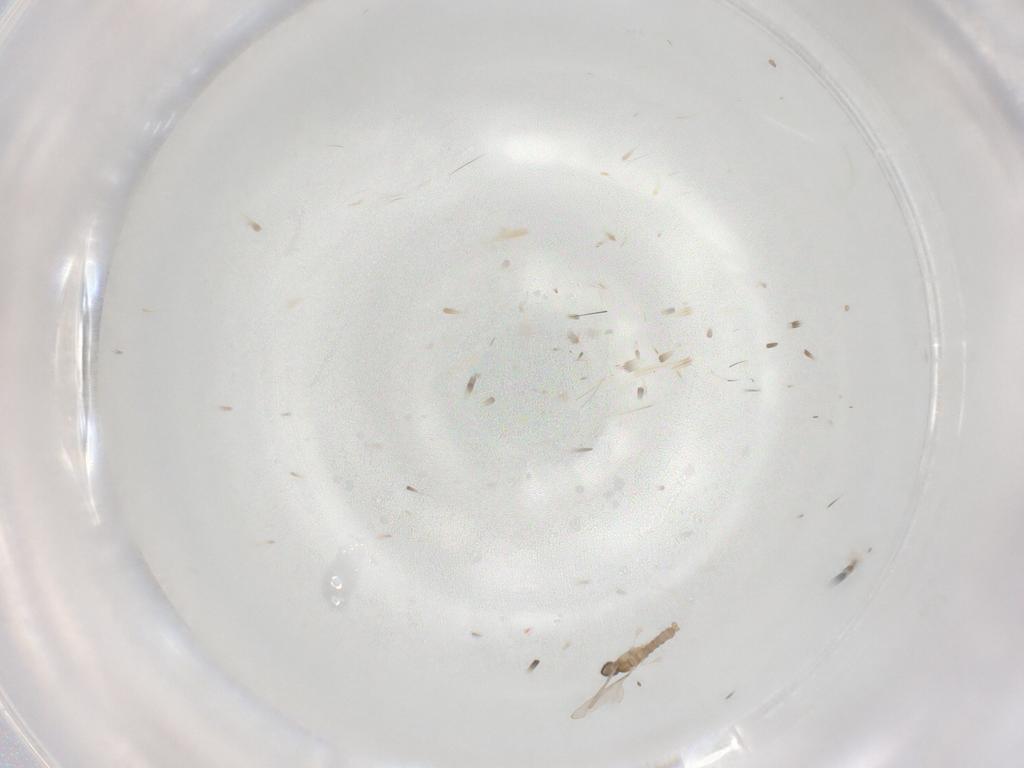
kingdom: Animalia
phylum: Arthropoda
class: Insecta
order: Diptera
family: Cecidomyiidae
